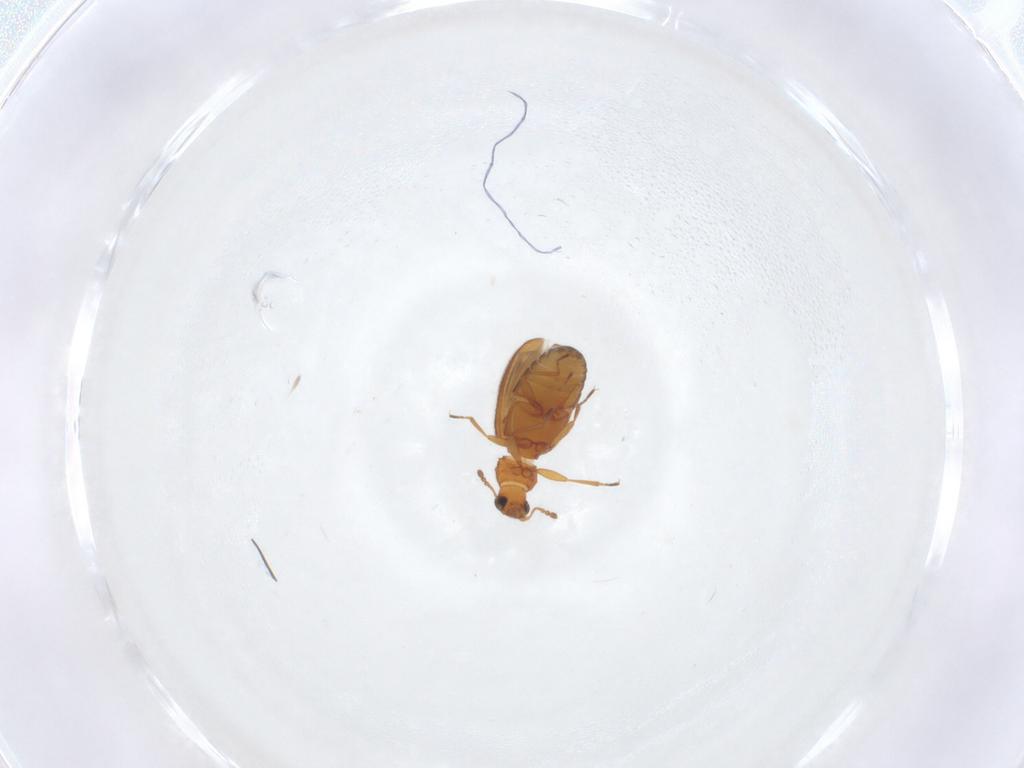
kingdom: Animalia
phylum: Arthropoda
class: Insecta
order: Coleoptera
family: Latridiidae
